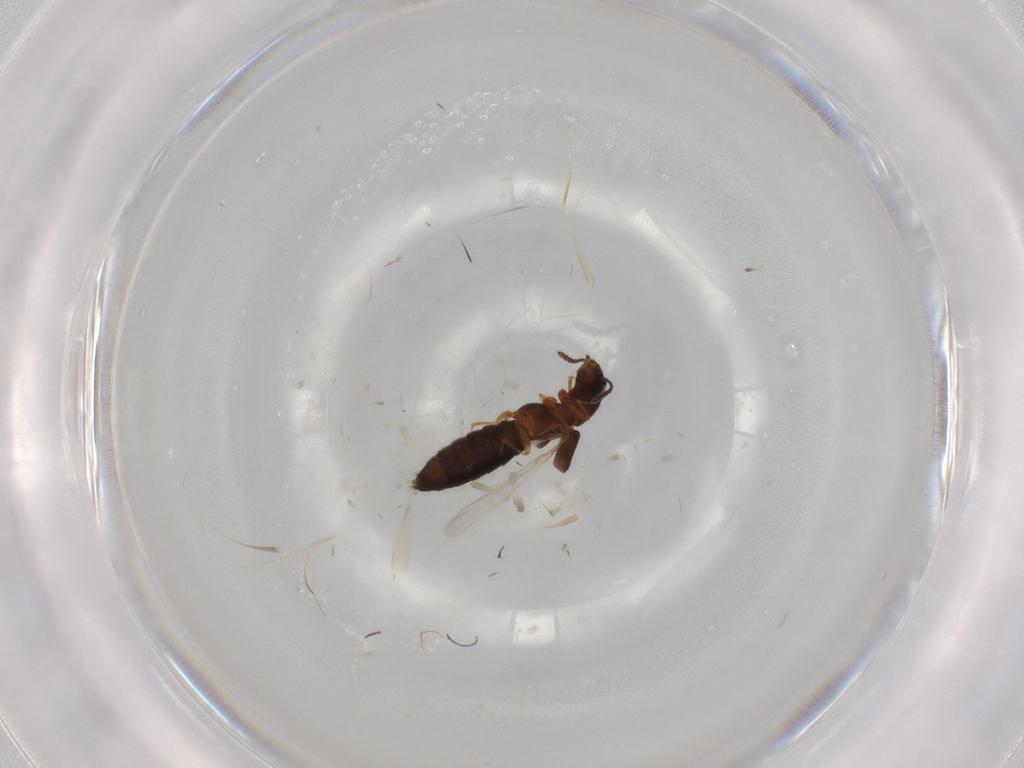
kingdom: Animalia
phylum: Arthropoda
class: Insecta
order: Coleoptera
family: Staphylinidae
